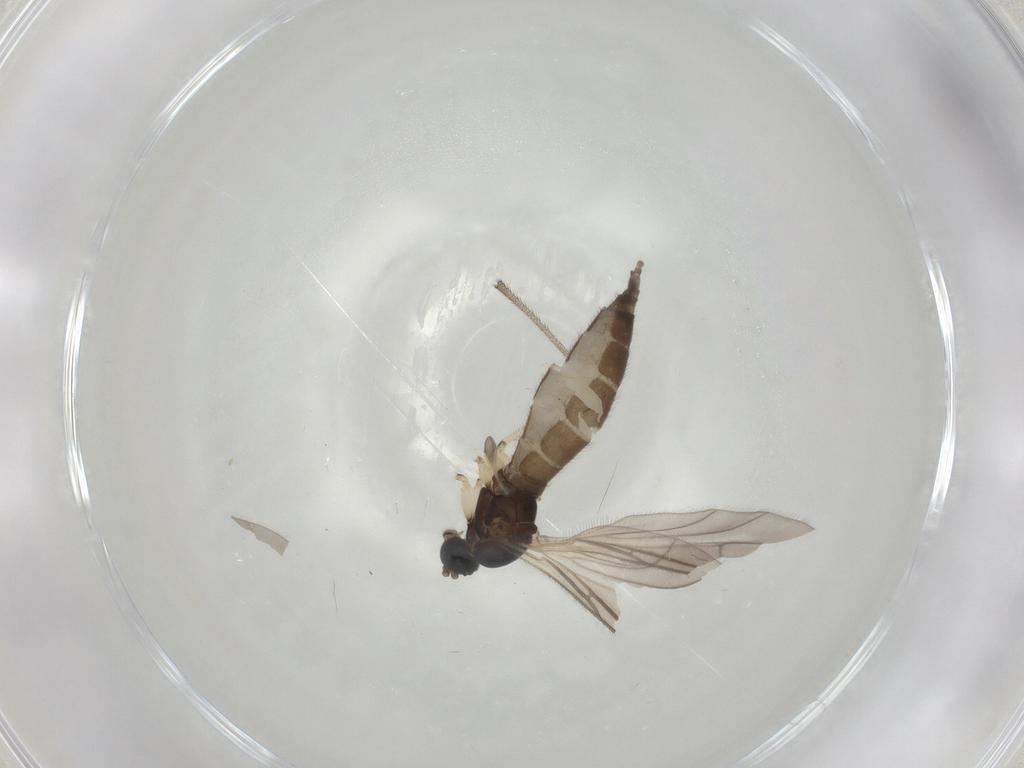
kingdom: Animalia
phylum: Arthropoda
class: Insecta
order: Diptera
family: Sciaridae
